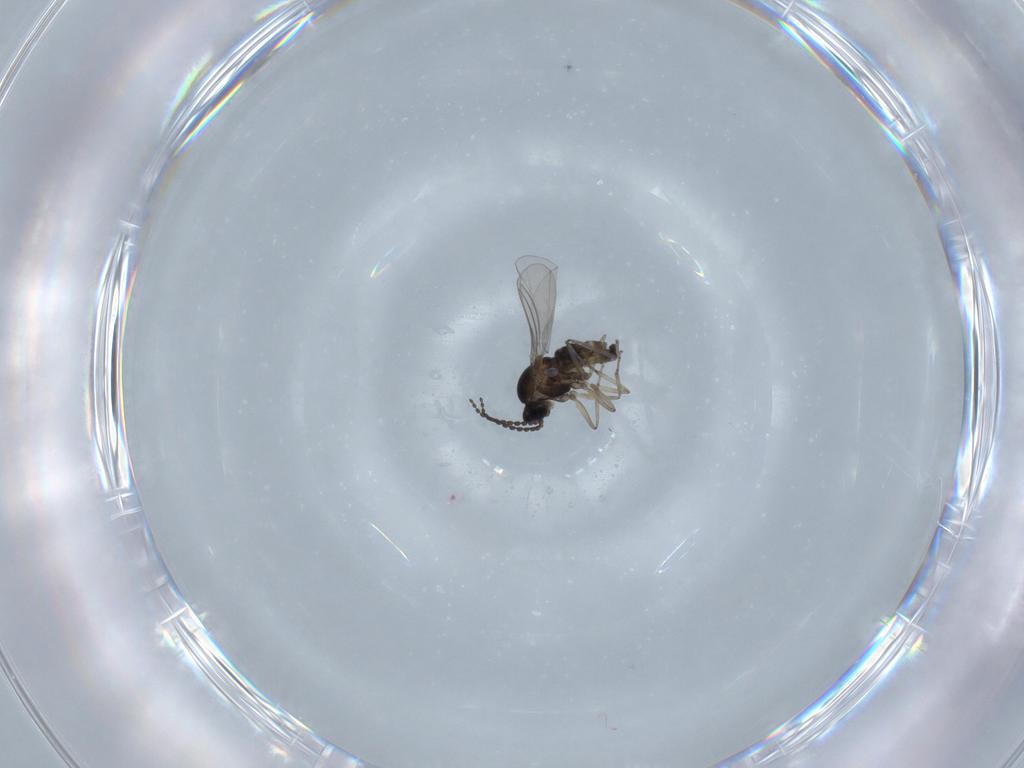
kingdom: Animalia
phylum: Arthropoda
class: Insecta
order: Diptera
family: Cecidomyiidae
